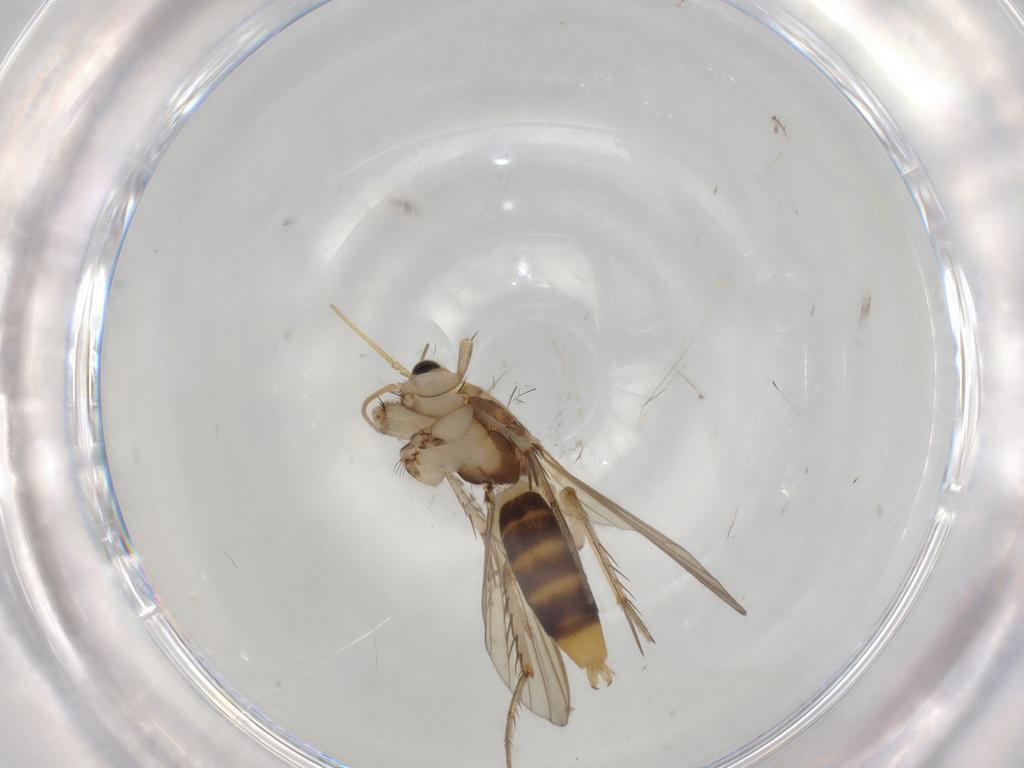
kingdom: Animalia
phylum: Arthropoda
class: Insecta
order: Diptera
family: Mycetophilidae
